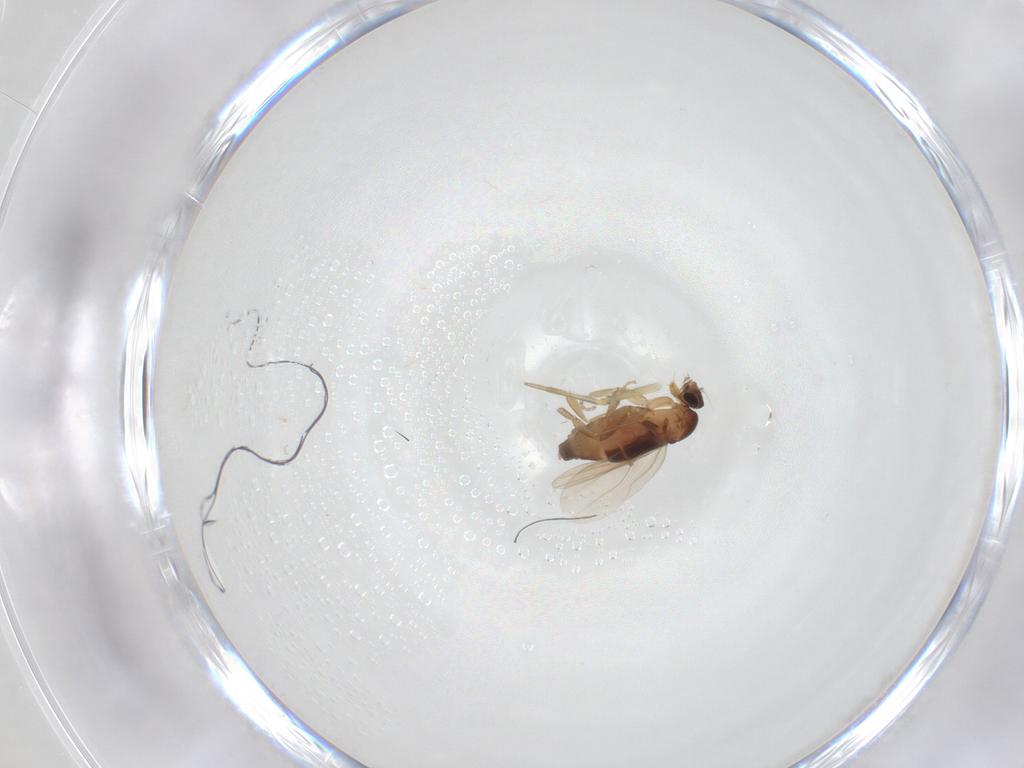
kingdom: Animalia
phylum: Arthropoda
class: Insecta
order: Diptera
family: Phoridae
